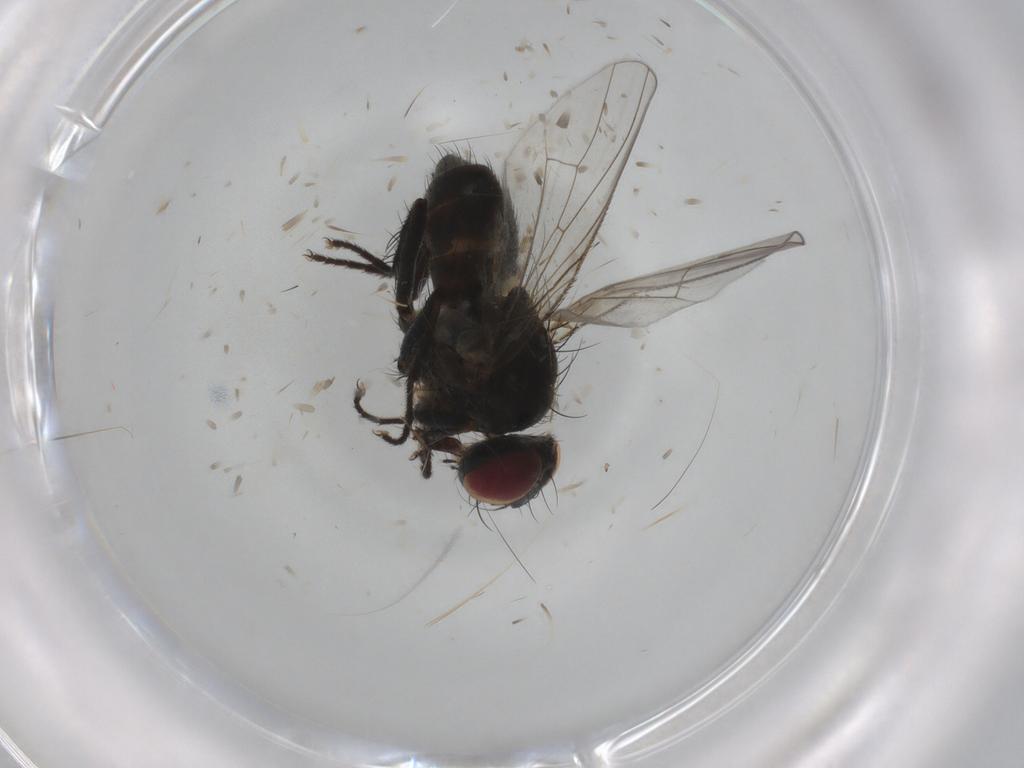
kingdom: Animalia
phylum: Arthropoda
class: Insecta
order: Diptera
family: Muscidae
